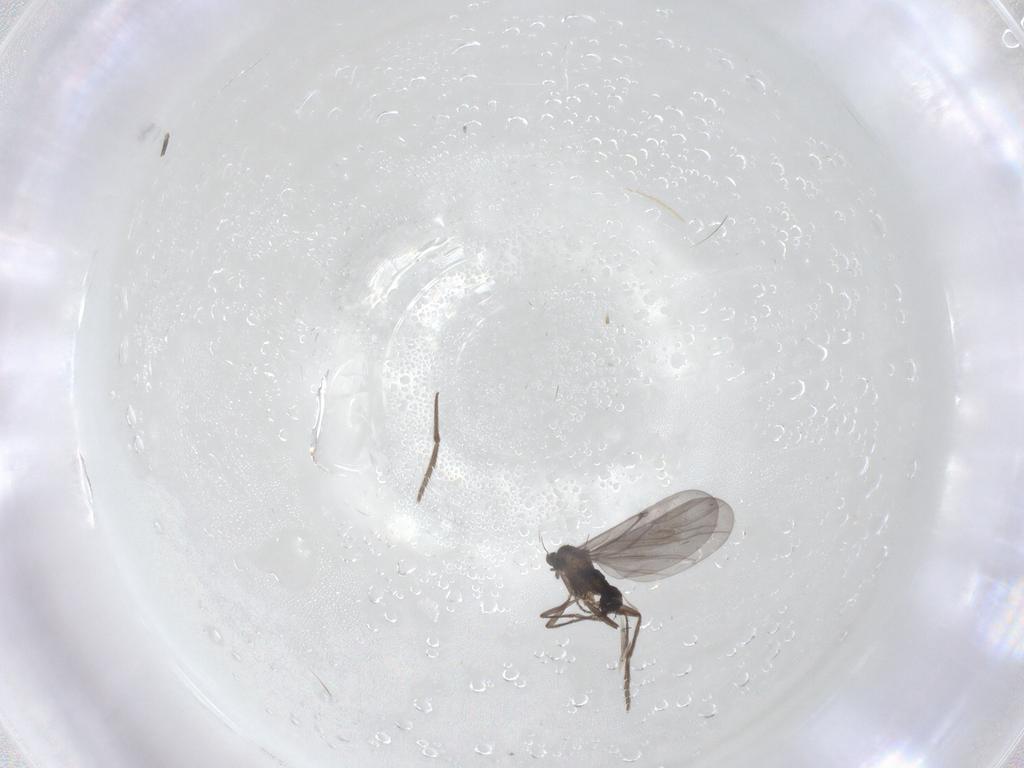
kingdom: Animalia
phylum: Arthropoda
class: Insecta
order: Diptera
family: Phoridae
